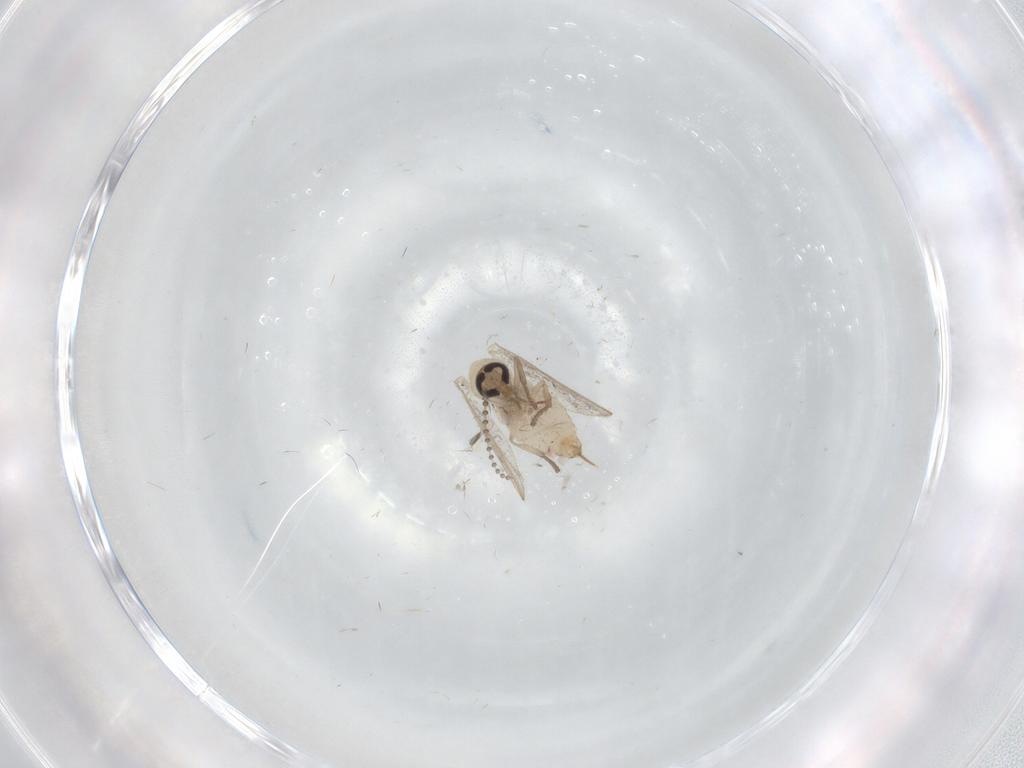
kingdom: Animalia
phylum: Arthropoda
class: Insecta
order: Diptera
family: Psychodidae
